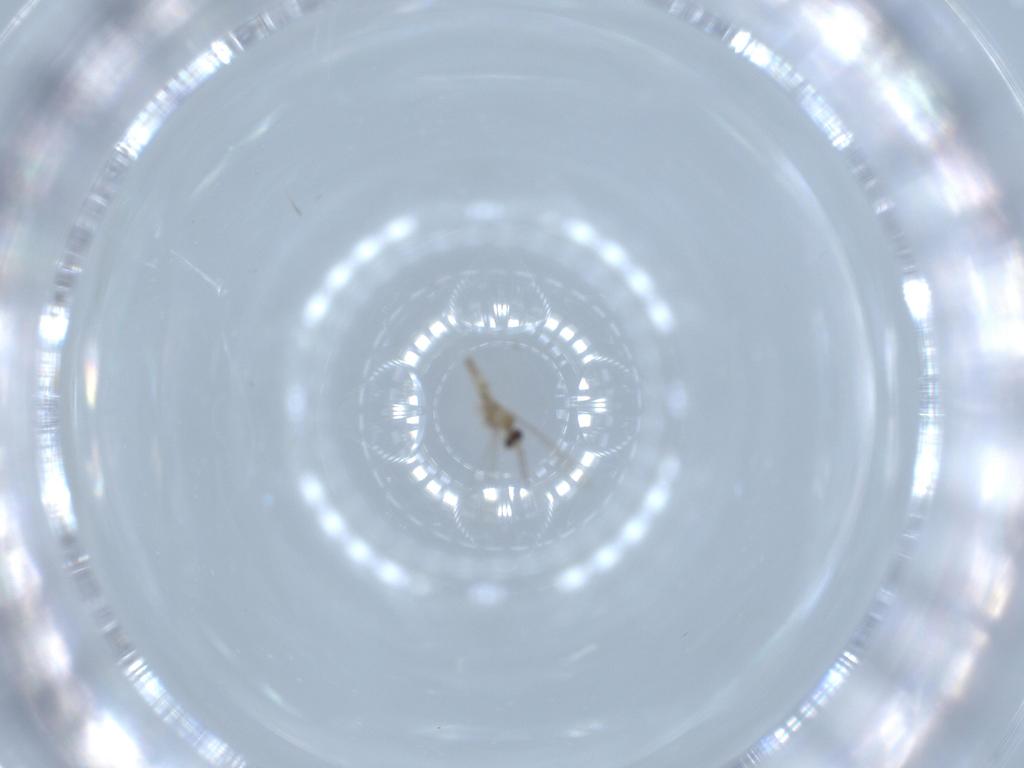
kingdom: Animalia
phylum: Arthropoda
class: Insecta
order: Diptera
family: Cecidomyiidae
